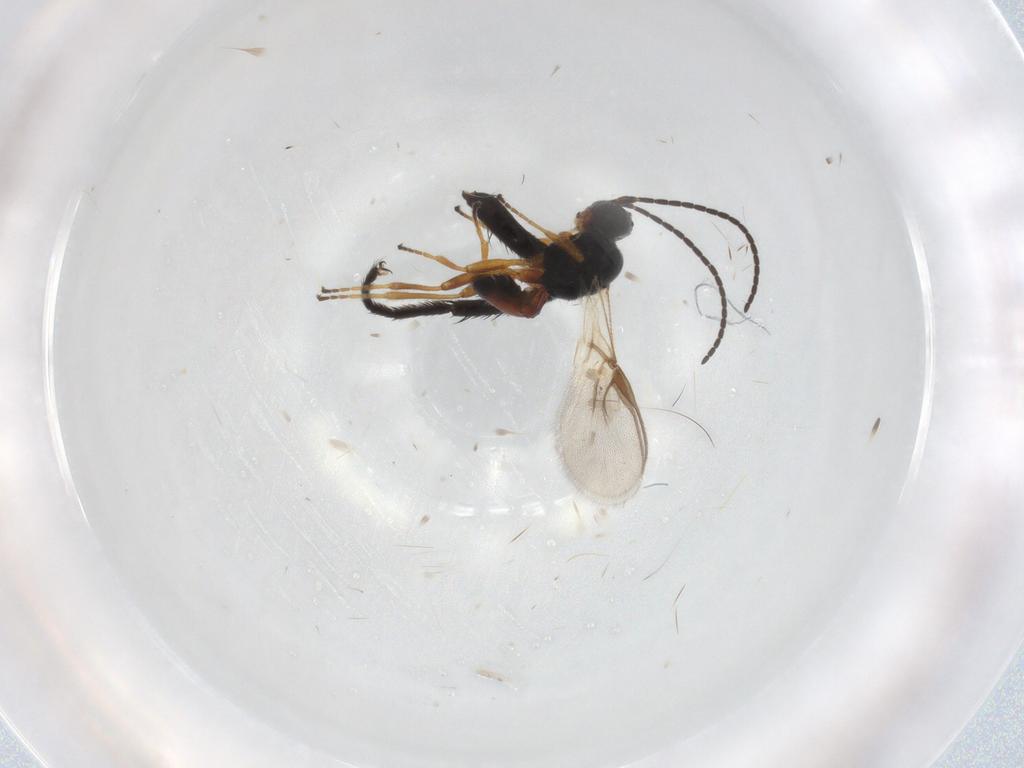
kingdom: Animalia
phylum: Arthropoda
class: Insecta
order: Hymenoptera
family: Braconidae
